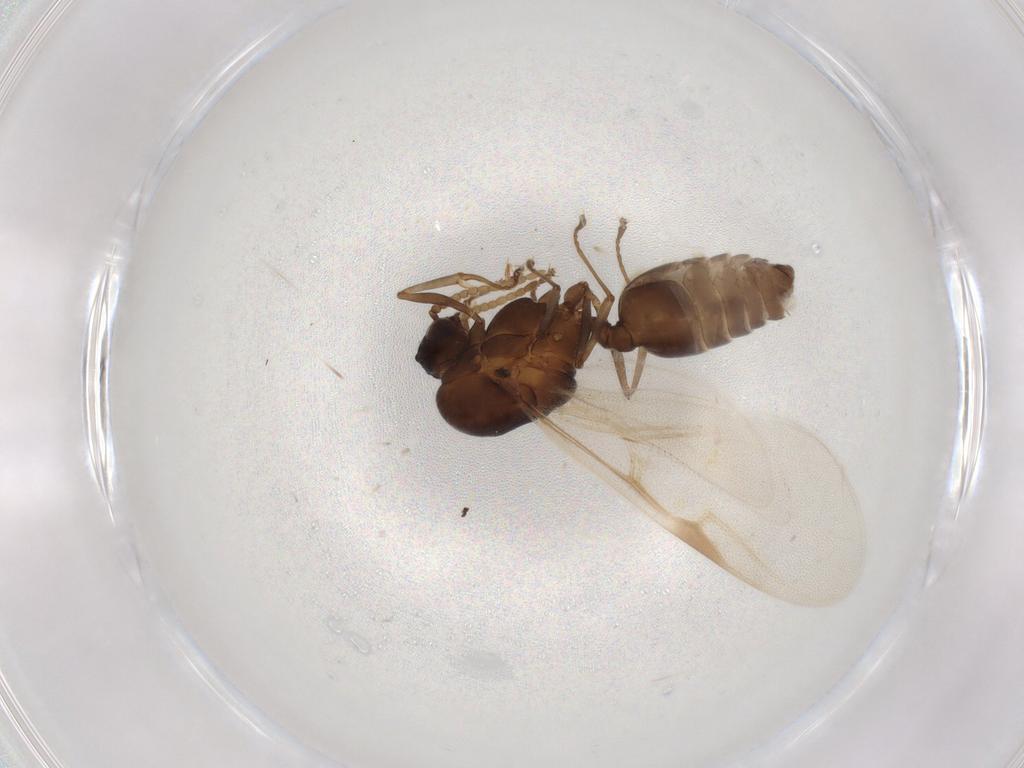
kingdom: Animalia
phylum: Arthropoda
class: Insecta
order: Hymenoptera
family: Formicidae
